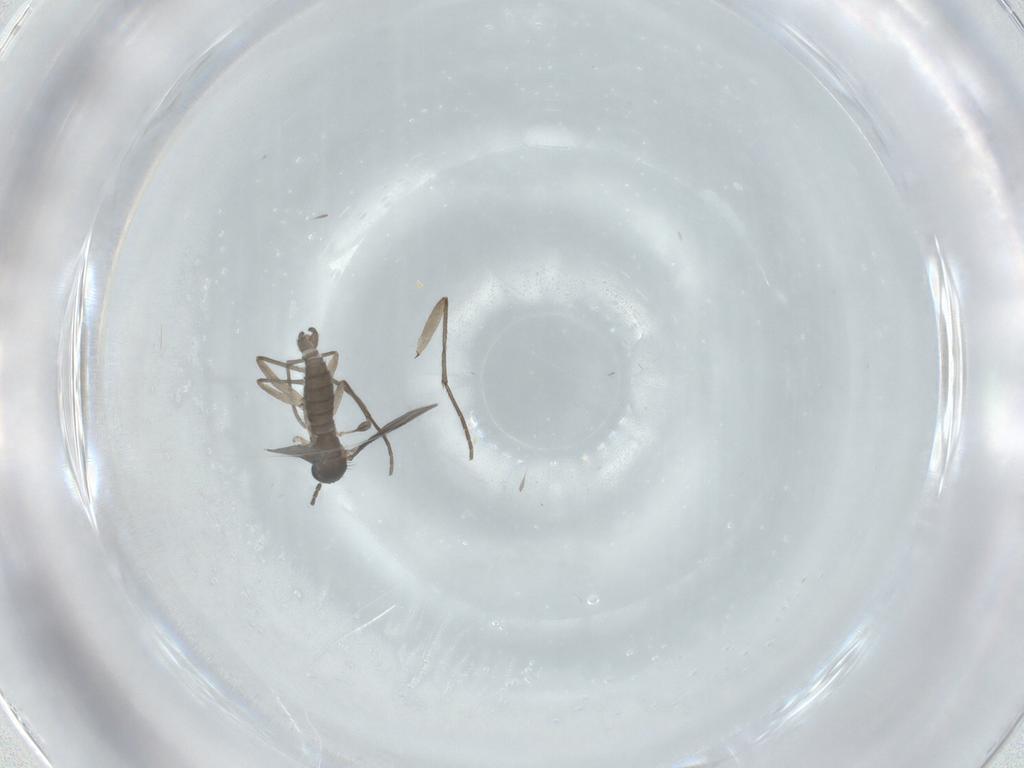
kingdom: Animalia
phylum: Arthropoda
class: Insecta
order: Diptera
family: Sciaridae
